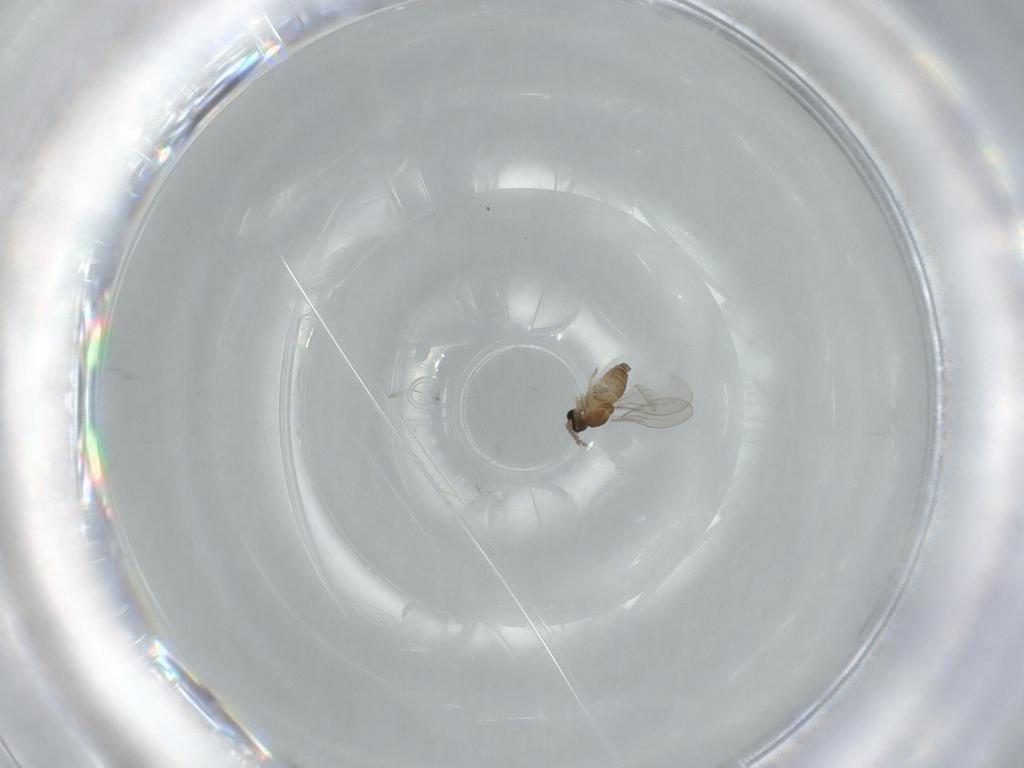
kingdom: Animalia
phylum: Arthropoda
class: Insecta
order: Diptera
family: Cecidomyiidae
